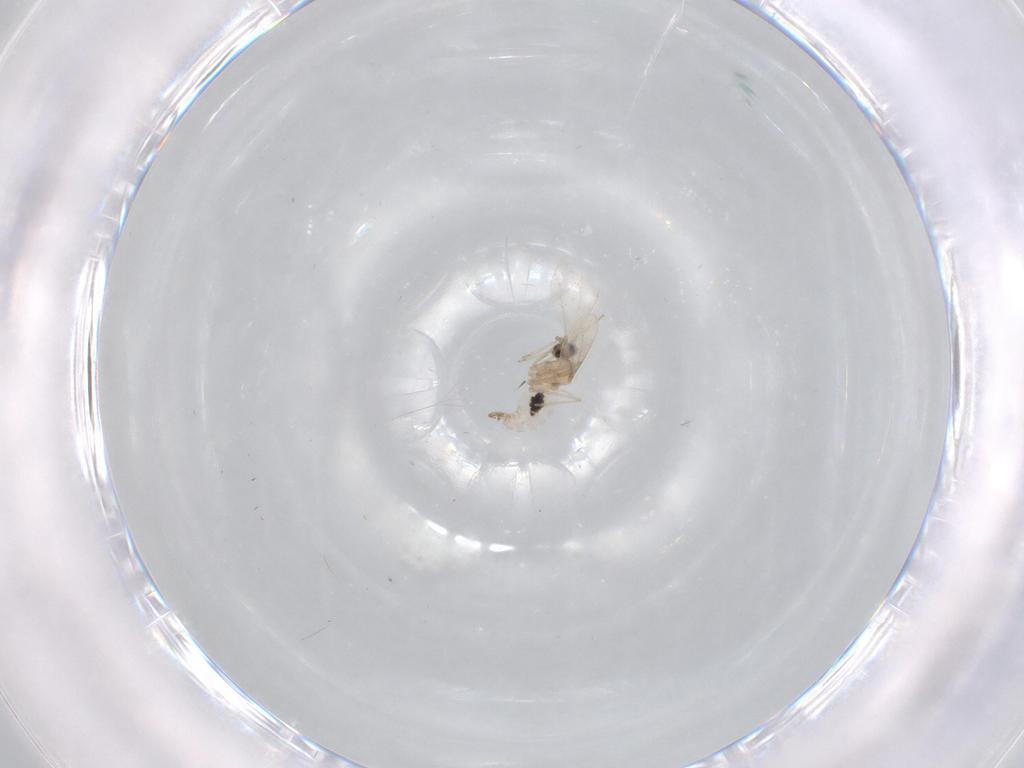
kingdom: Animalia
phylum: Arthropoda
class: Insecta
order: Diptera
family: Cecidomyiidae
